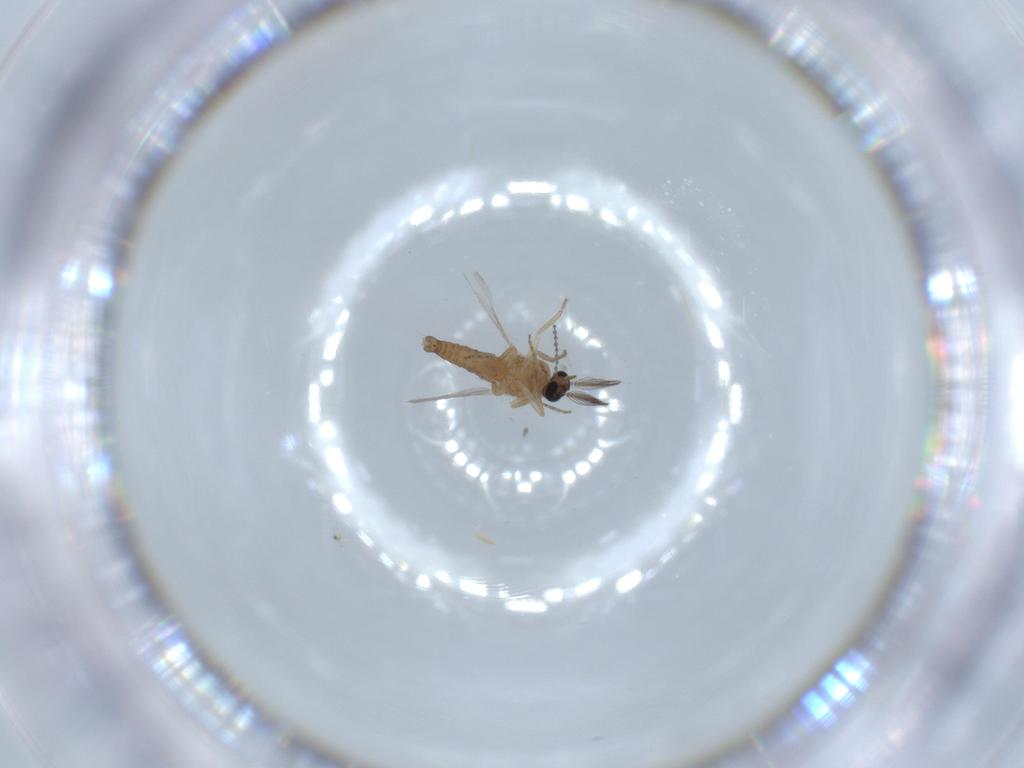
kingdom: Animalia
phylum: Arthropoda
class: Insecta
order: Diptera
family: Ceratopogonidae
